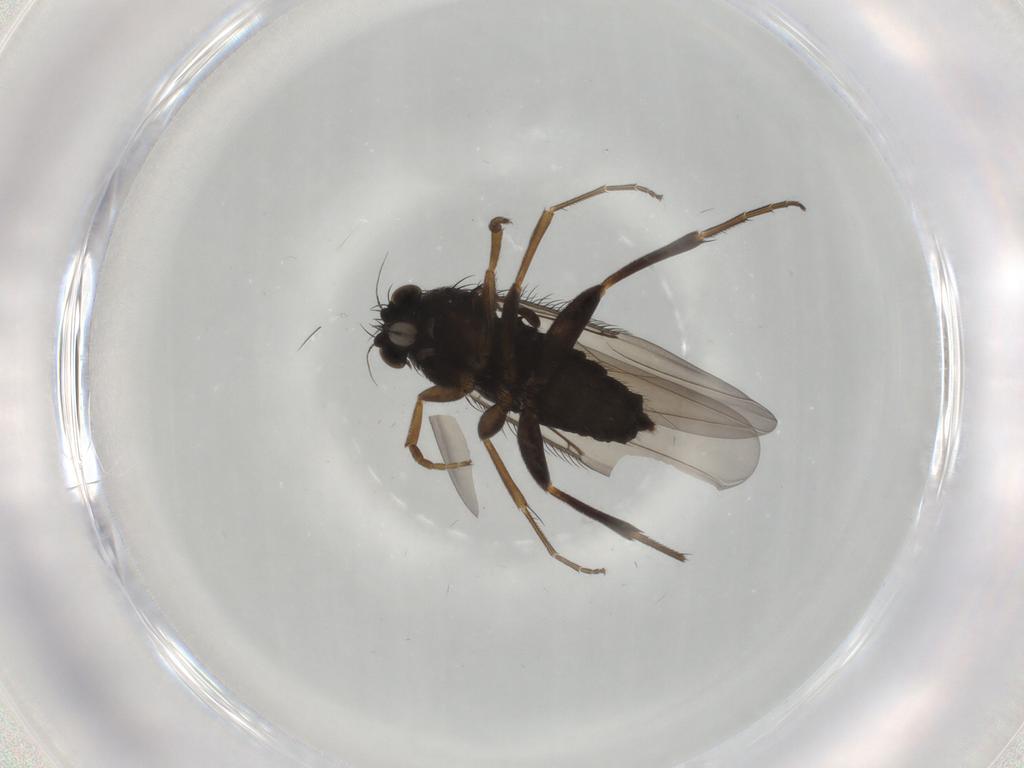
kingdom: Animalia
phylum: Arthropoda
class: Insecta
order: Diptera
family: Phoridae
